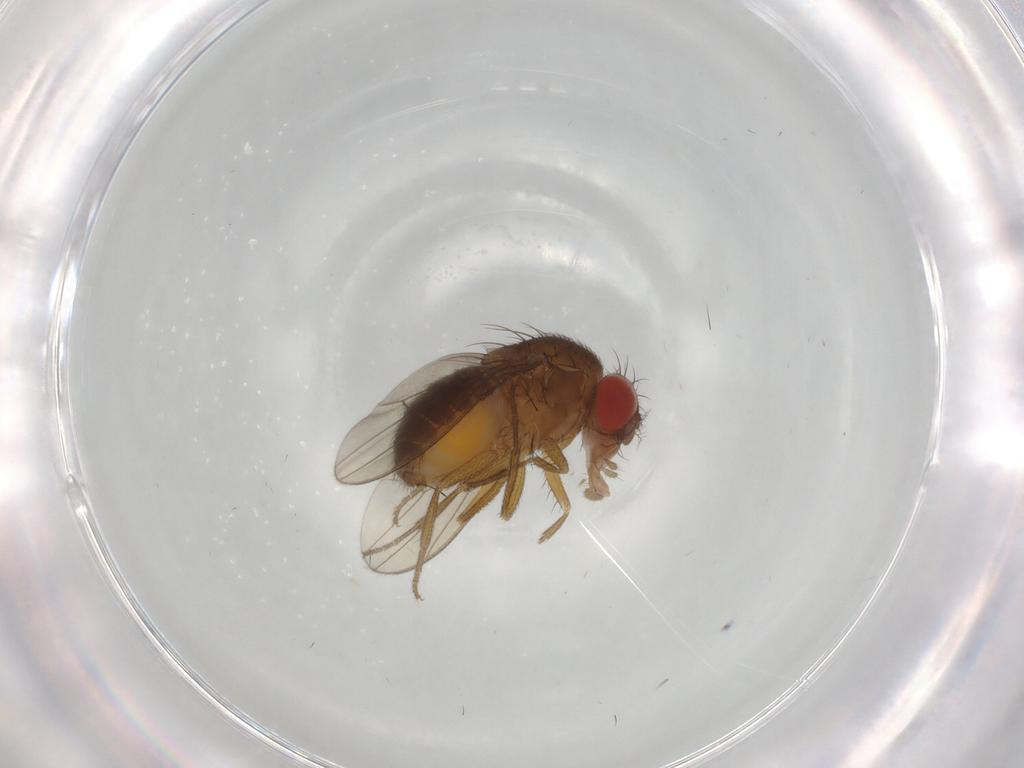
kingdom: Animalia
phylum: Arthropoda
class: Insecta
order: Diptera
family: Drosophilidae
